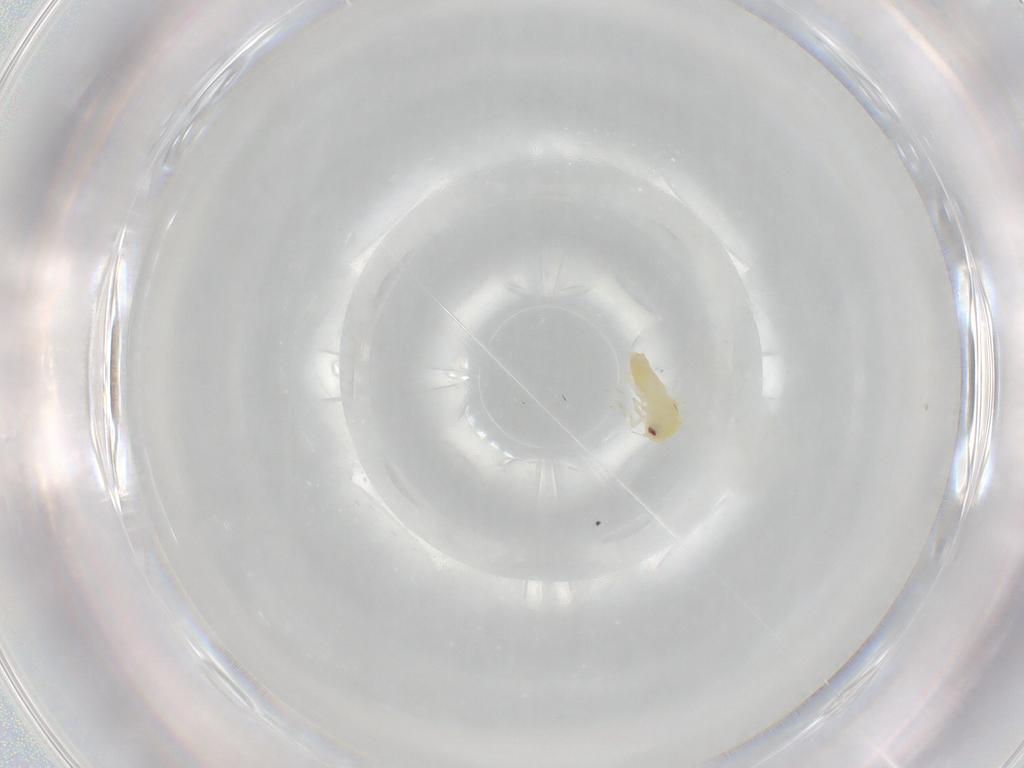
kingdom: Animalia
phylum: Arthropoda
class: Insecta
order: Hemiptera
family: Aleyrodidae
